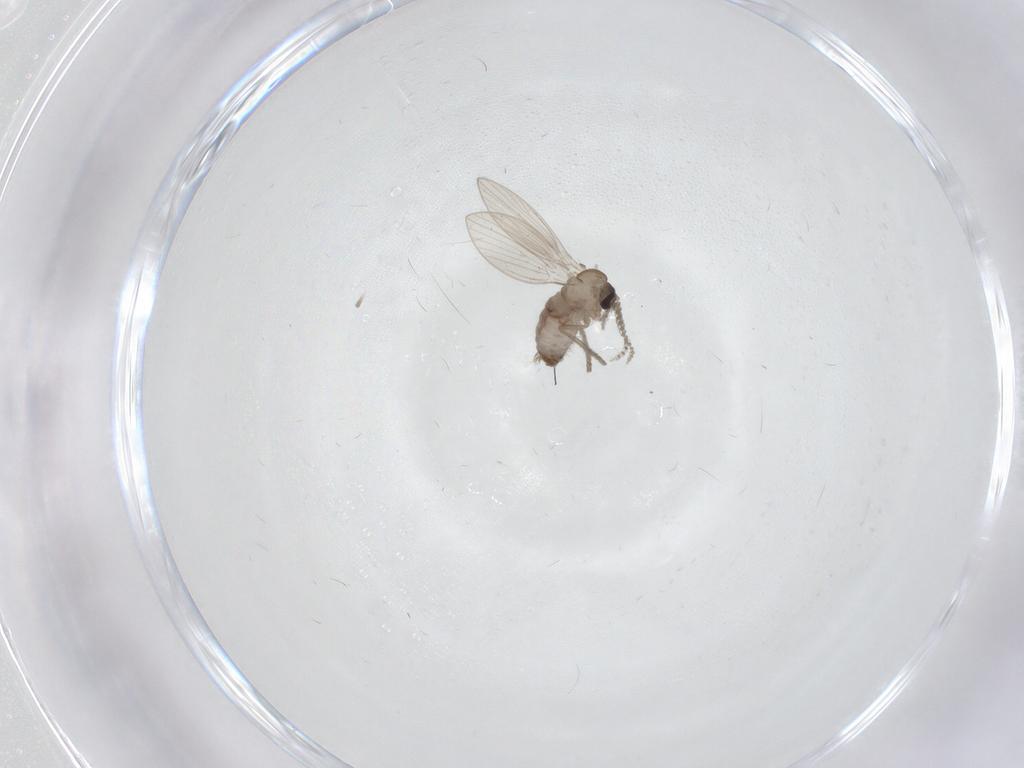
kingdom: Animalia
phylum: Arthropoda
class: Insecta
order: Diptera
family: Psychodidae
